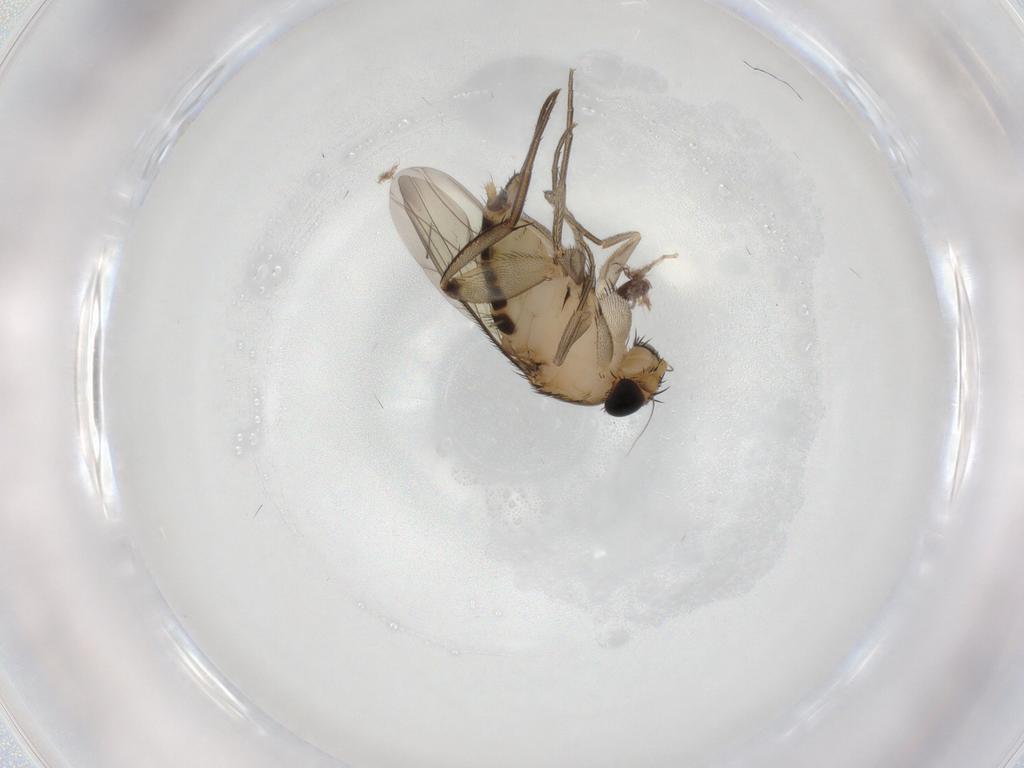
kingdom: Animalia
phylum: Arthropoda
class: Insecta
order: Diptera
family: Phoridae
